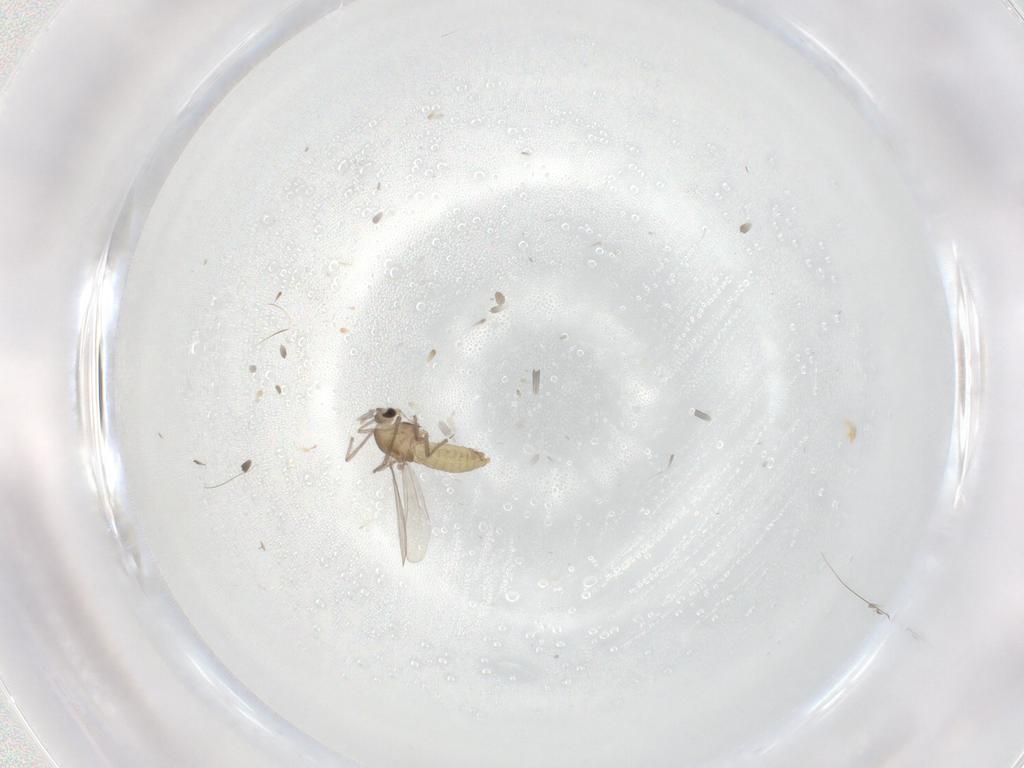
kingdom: Animalia
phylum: Arthropoda
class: Insecta
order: Diptera
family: Chironomidae
